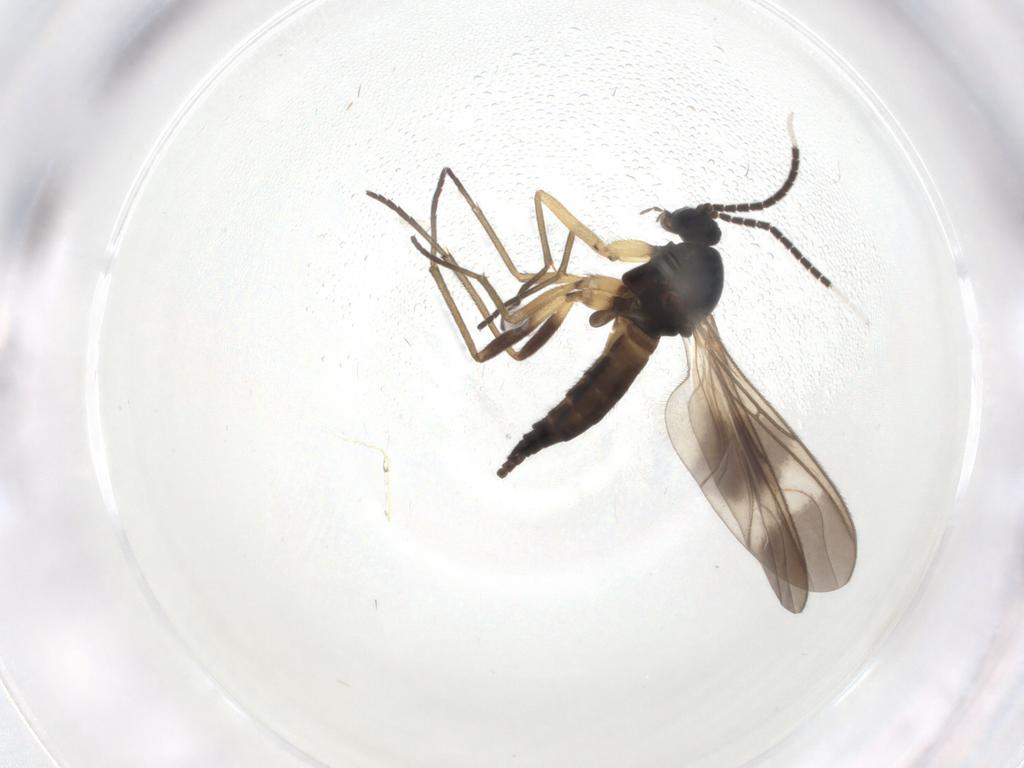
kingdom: Animalia
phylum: Arthropoda
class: Insecta
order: Diptera
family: Sciaridae
